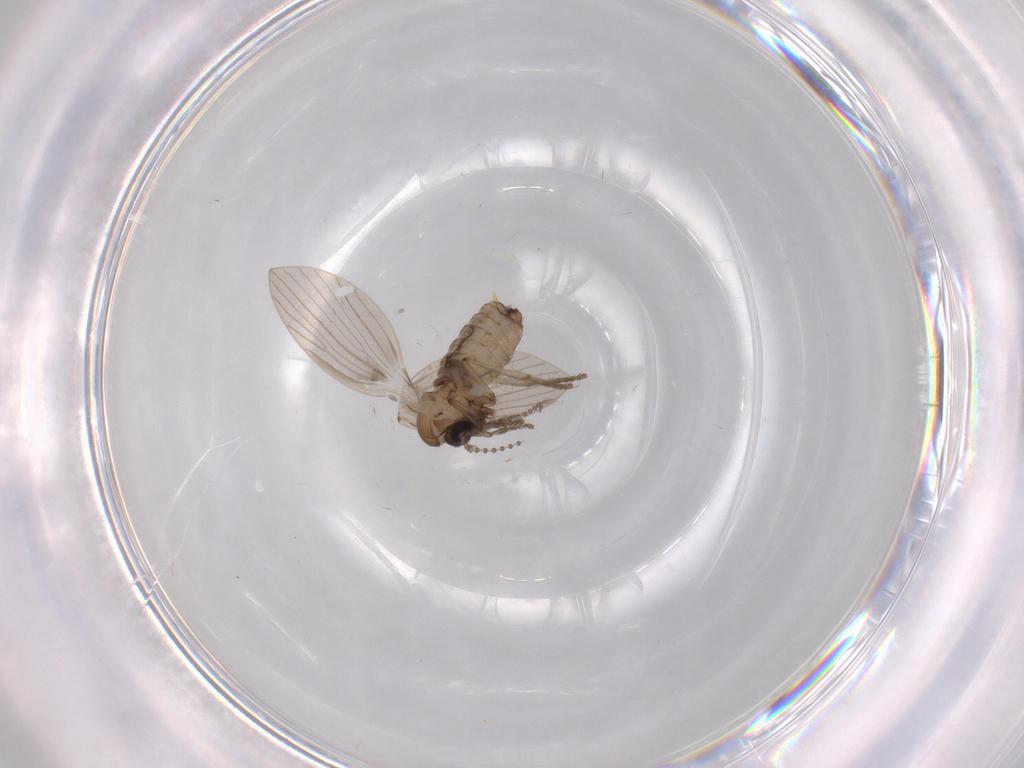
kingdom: Animalia
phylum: Arthropoda
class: Insecta
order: Diptera
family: Psychodidae
